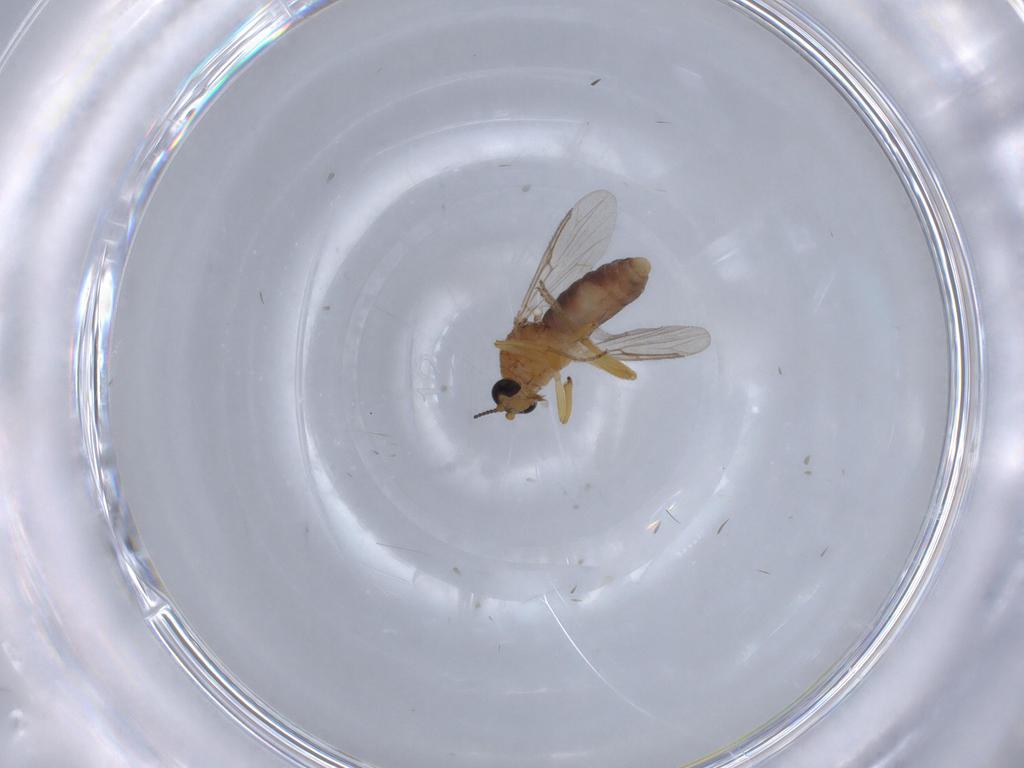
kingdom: Animalia
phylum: Arthropoda
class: Insecta
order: Diptera
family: Ceratopogonidae
